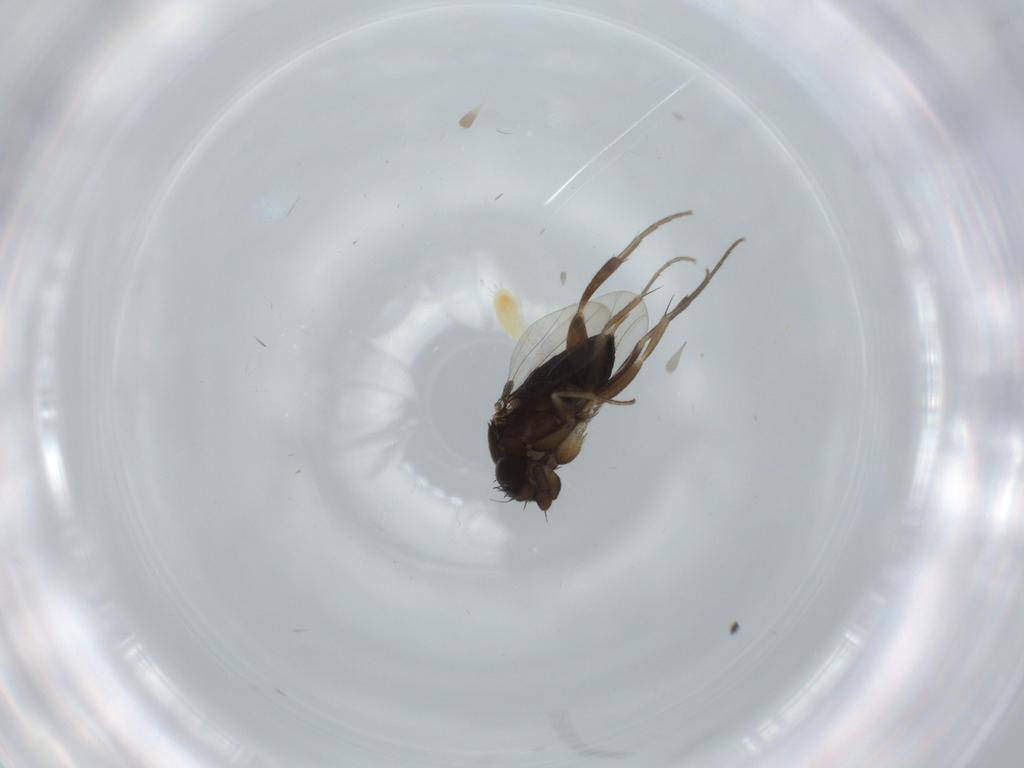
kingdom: Animalia
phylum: Arthropoda
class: Insecta
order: Diptera
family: Phoridae
